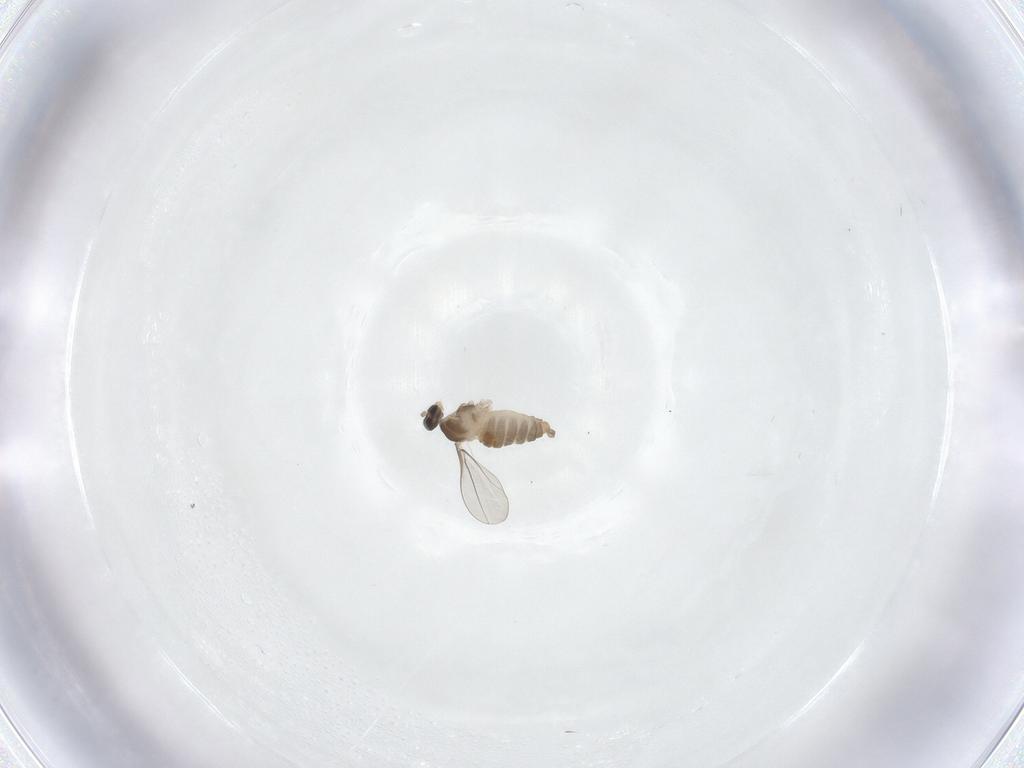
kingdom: Animalia
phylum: Arthropoda
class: Insecta
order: Diptera
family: Cecidomyiidae
